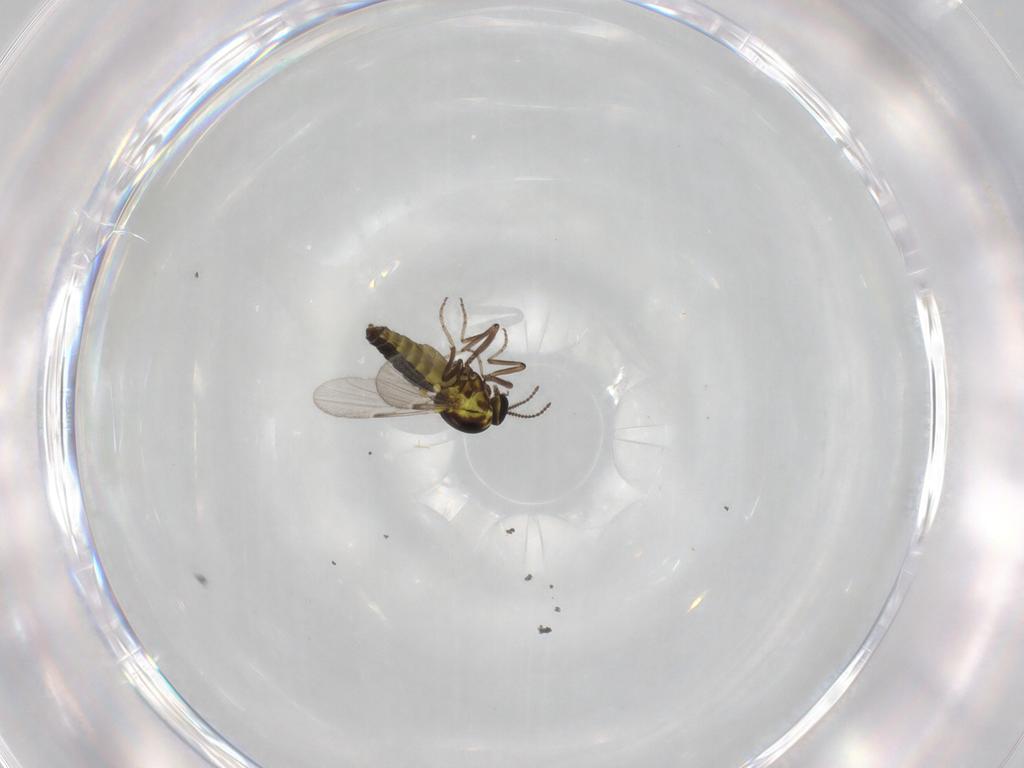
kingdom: Animalia
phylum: Arthropoda
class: Insecta
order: Diptera
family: Ceratopogonidae
